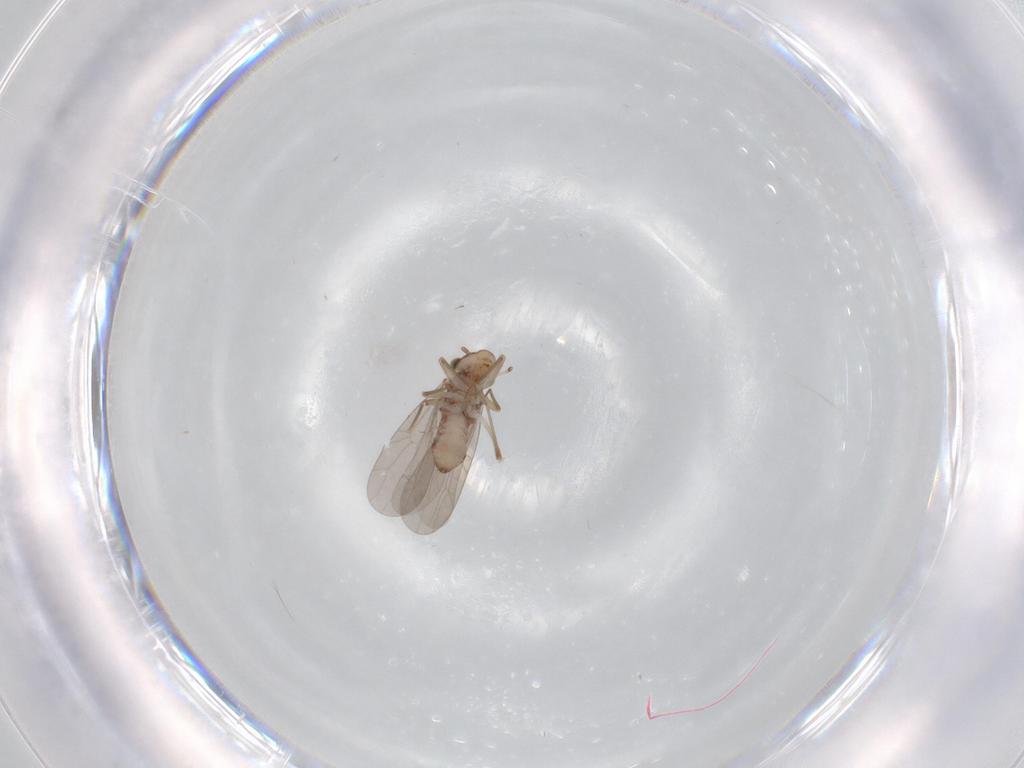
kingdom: Animalia
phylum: Arthropoda
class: Insecta
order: Psocodea
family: Lepidopsocidae
